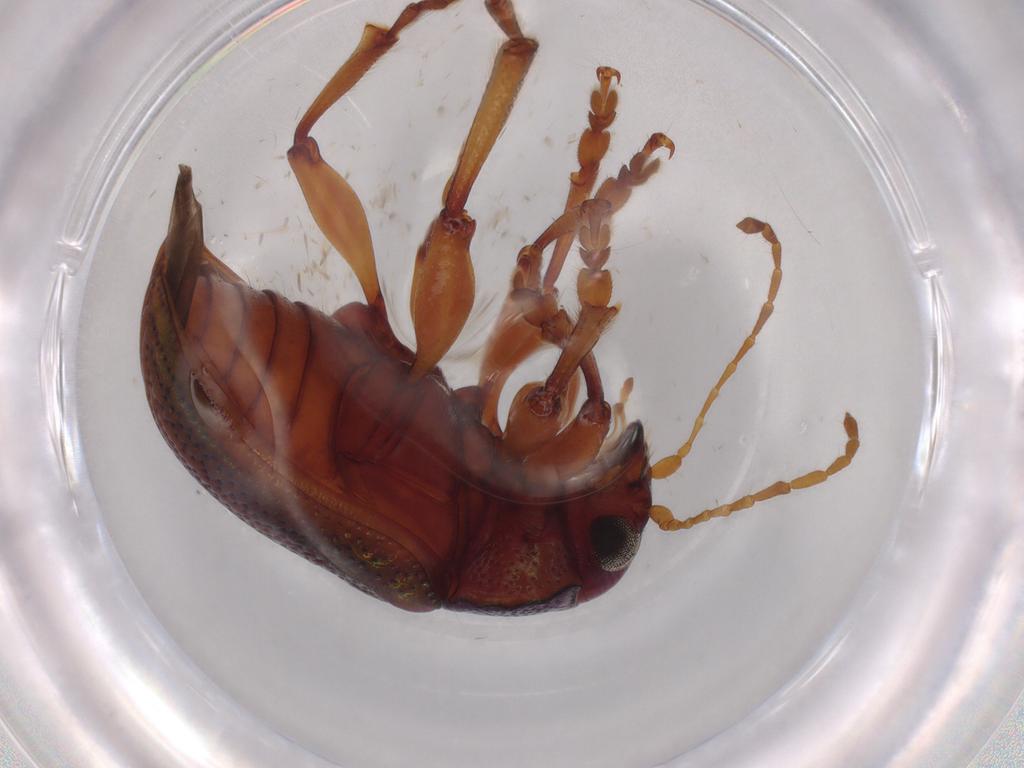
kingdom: Animalia
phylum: Arthropoda
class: Insecta
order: Coleoptera
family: Chrysomelidae
